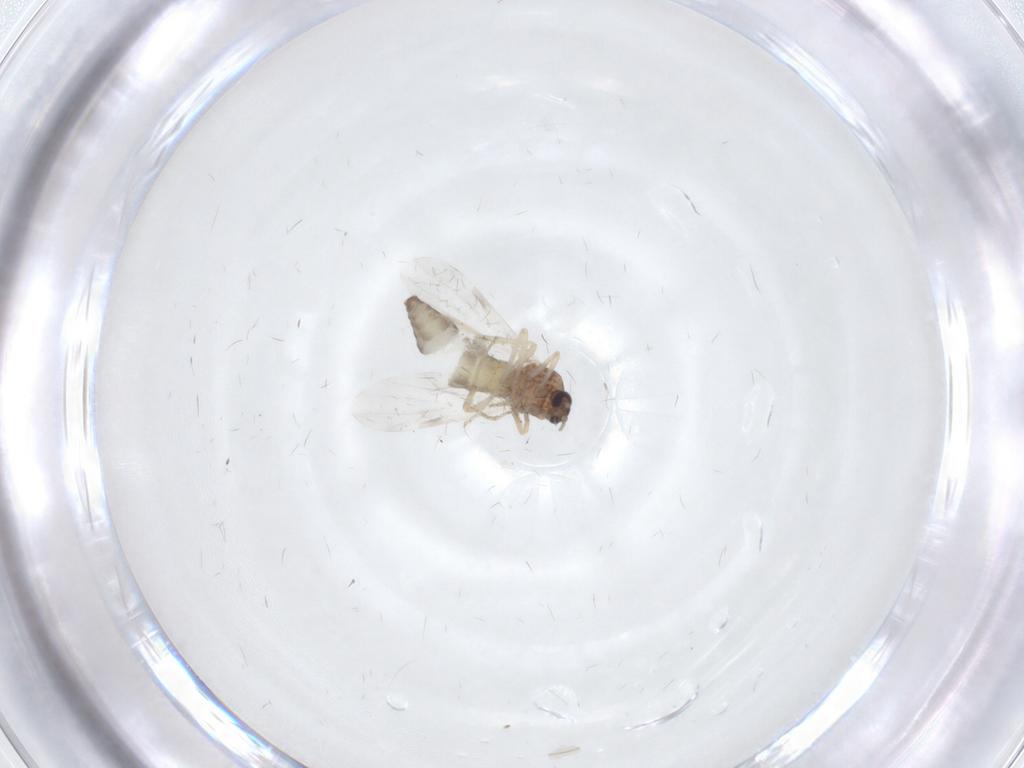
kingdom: Animalia
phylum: Arthropoda
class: Insecta
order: Diptera
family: Ceratopogonidae
